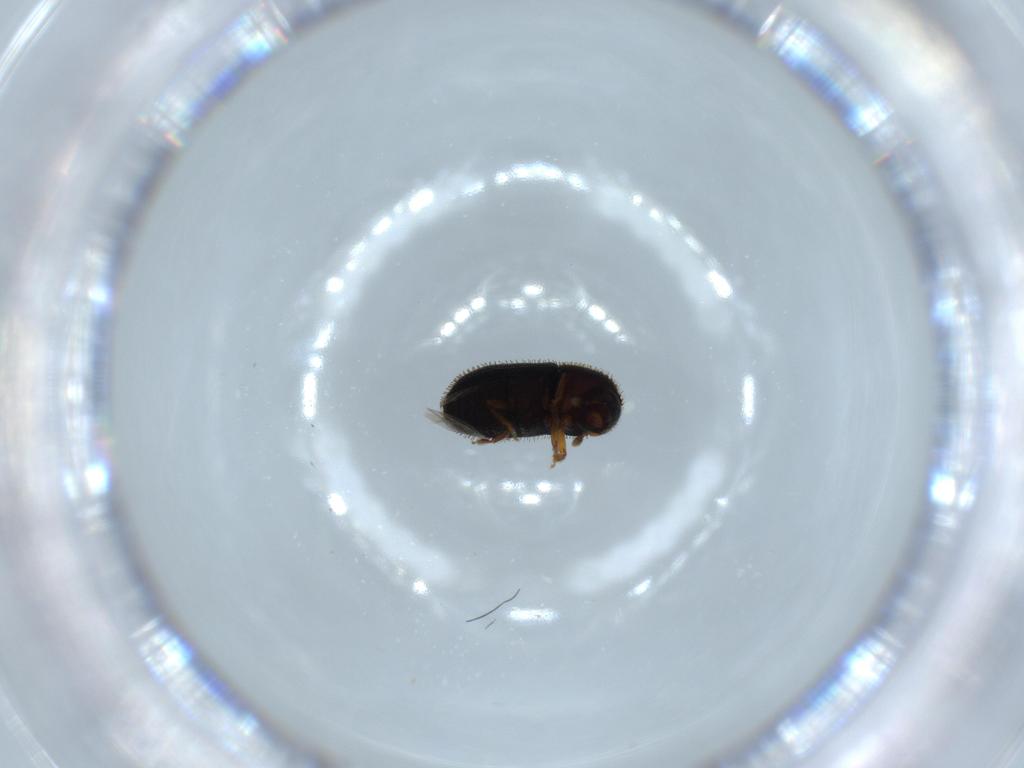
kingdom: Animalia
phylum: Arthropoda
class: Insecta
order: Coleoptera
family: Curculionidae
